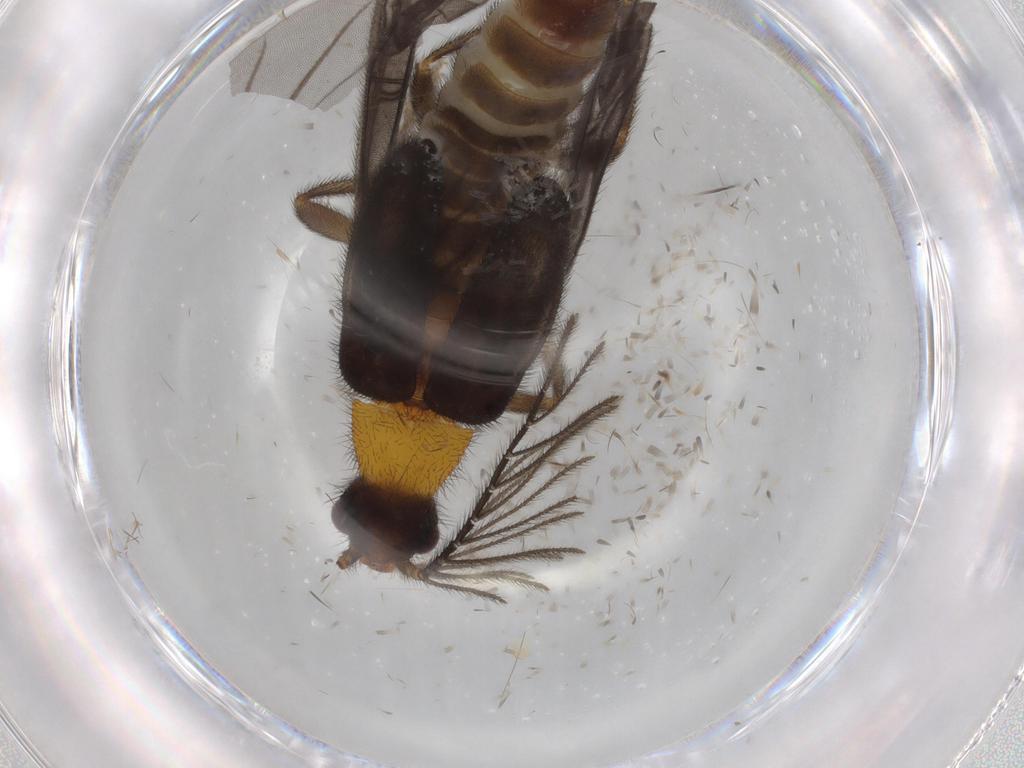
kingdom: Animalia
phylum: Arthropoda
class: Insecta
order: Coleoptera
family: Phengodidae
